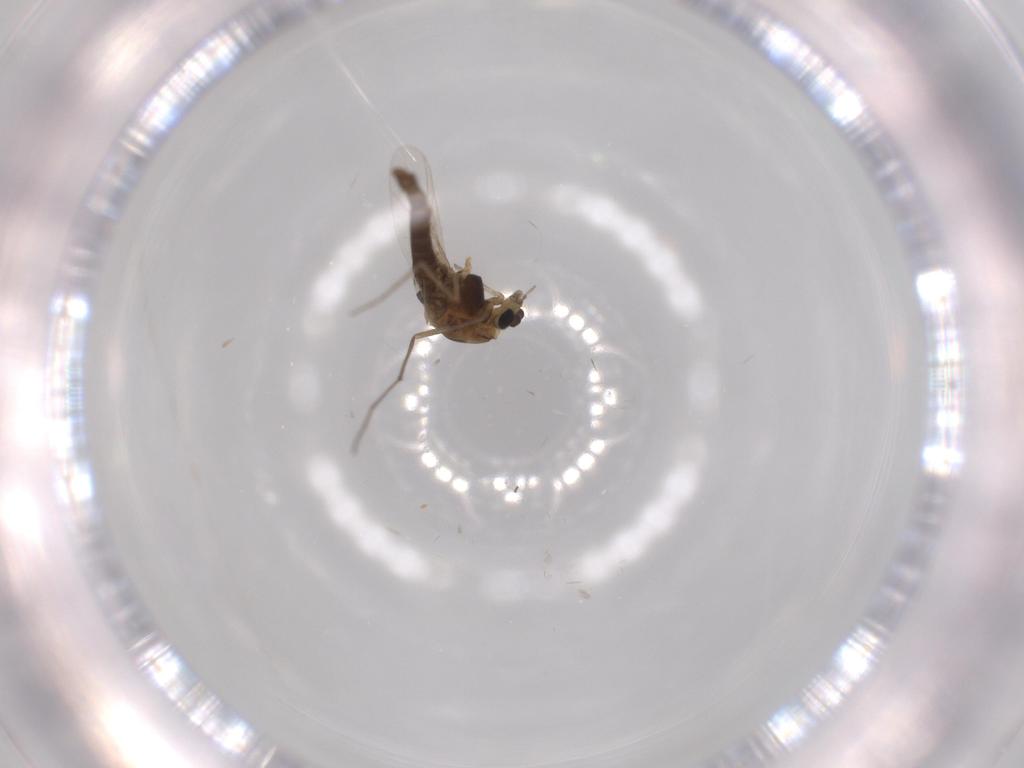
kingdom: Animalia
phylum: Arthropoda
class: Insecta
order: Diptera
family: Chironomidae
